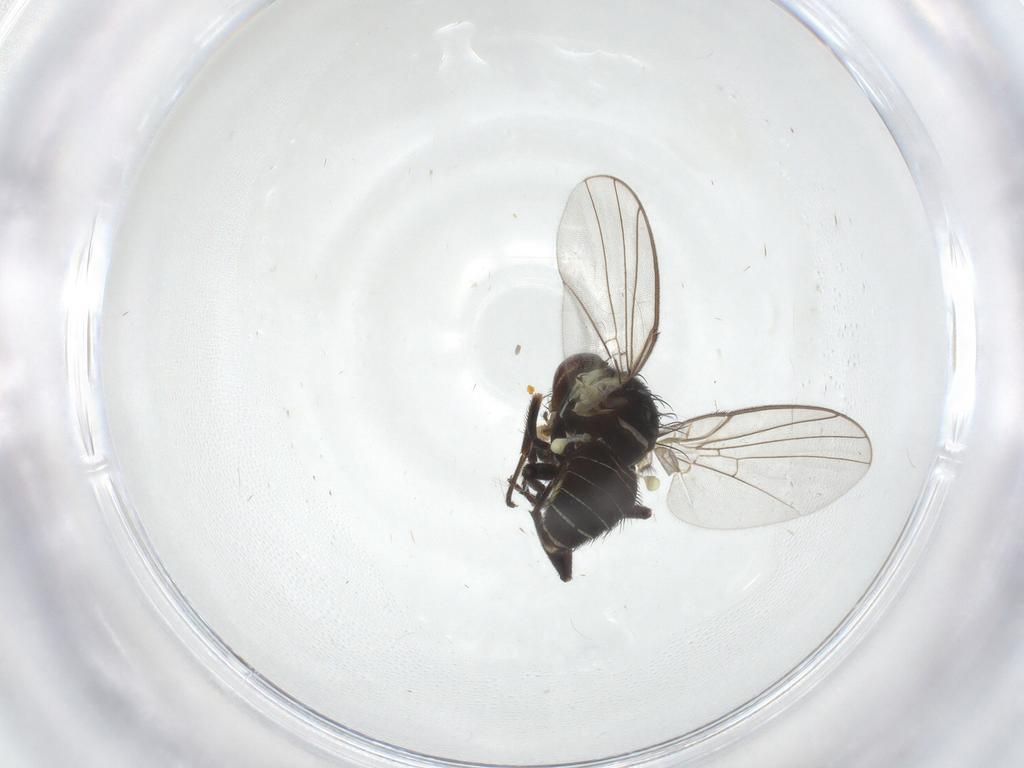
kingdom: Animalia
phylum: Arthropoda
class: Insecta
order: Diptera
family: Agromyzidae
